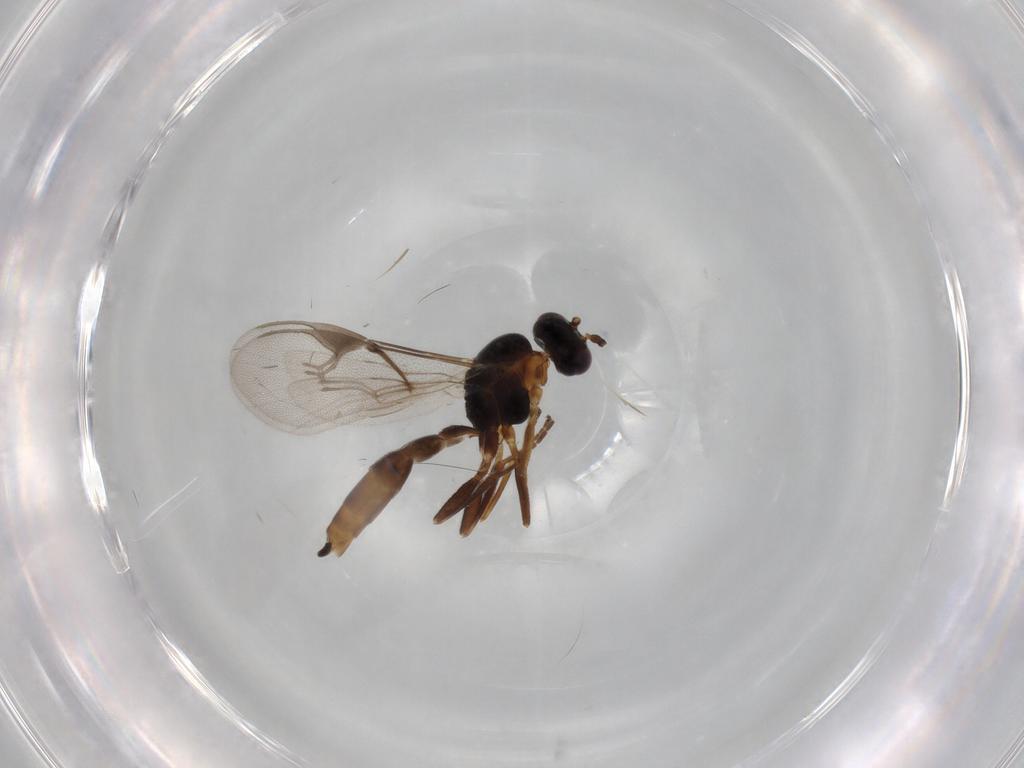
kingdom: Animalia
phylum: Arthropoda
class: Insecta
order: Hymenoptera
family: Braconidae
